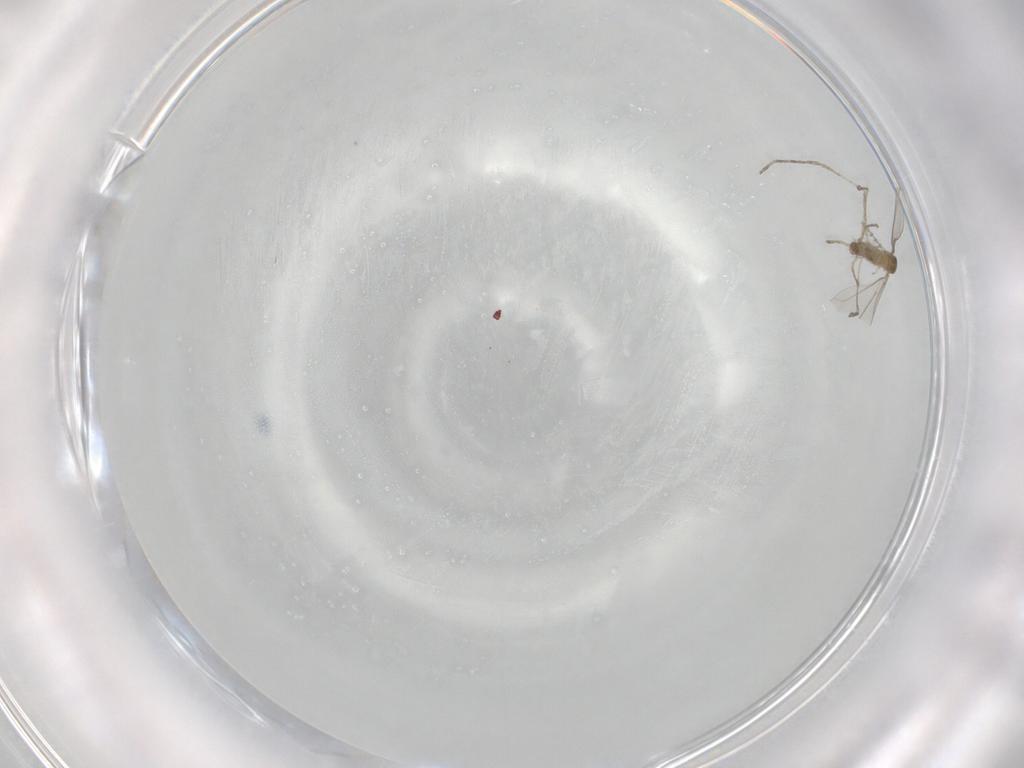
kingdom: Animalia
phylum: Arthropoda
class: Insecta
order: Diptera
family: Cecidomyiidae
